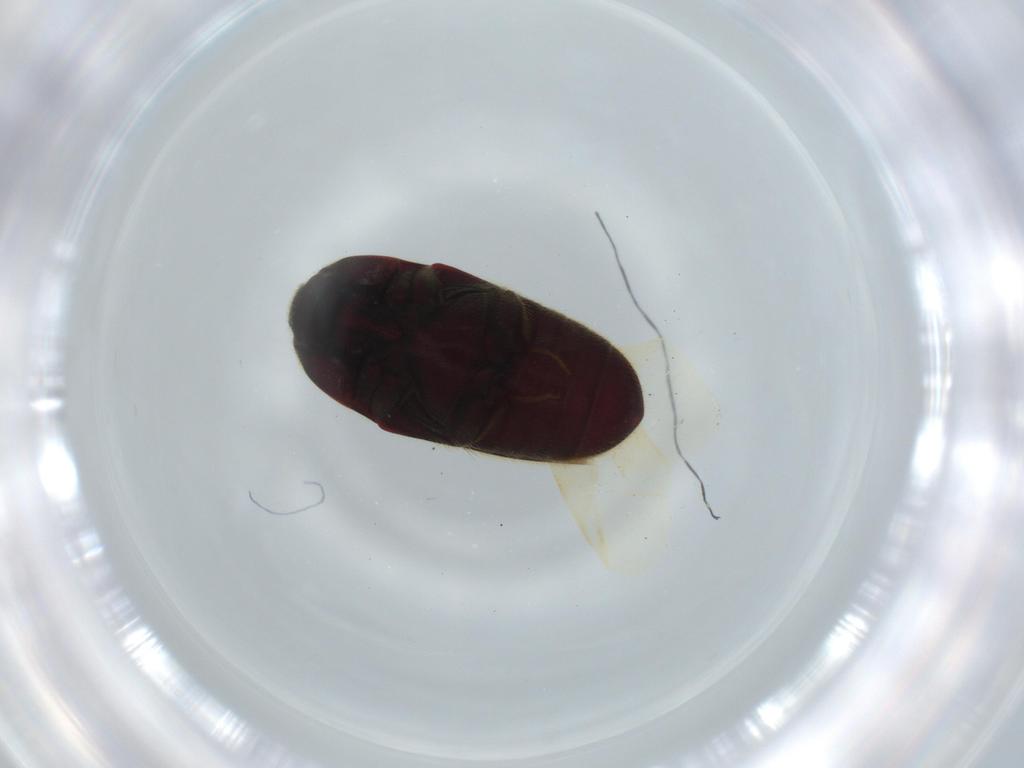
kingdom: Animalia
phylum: Arthropoda
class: Insecta
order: Coleoptera
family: Throscidae
